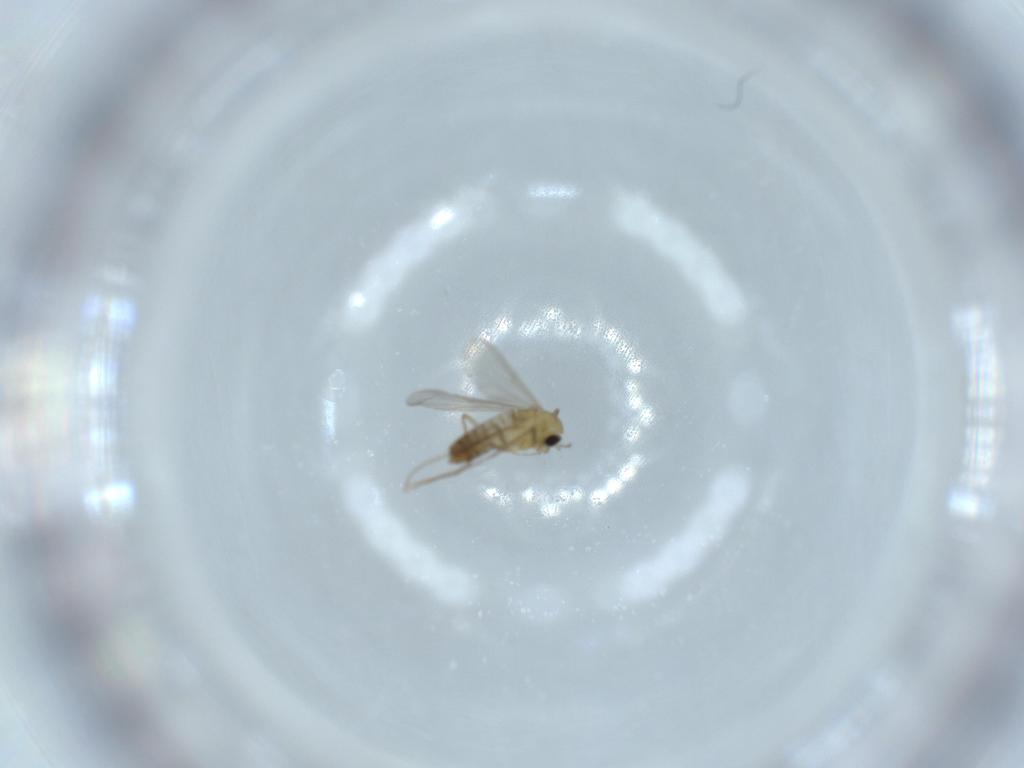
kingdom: Animalia
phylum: Arthropoda
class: Insecta
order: Diptera
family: Chironomidae
